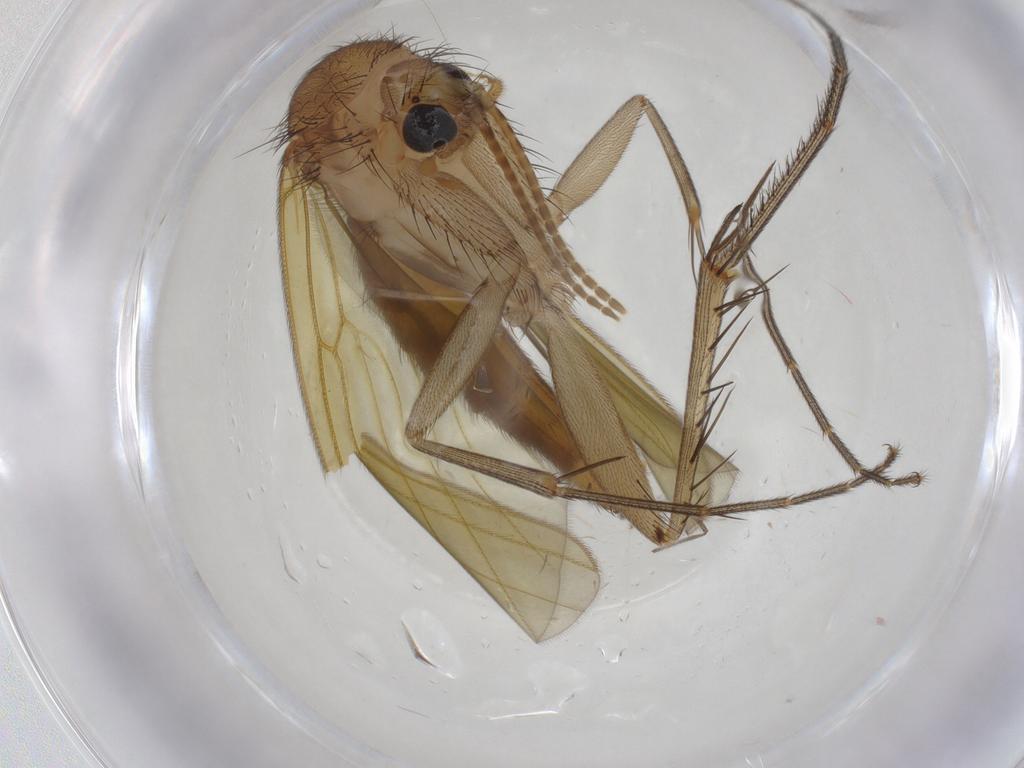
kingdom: Animalia
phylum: Arthropoda
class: Insecta
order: Diptera
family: Mycetophilidae
